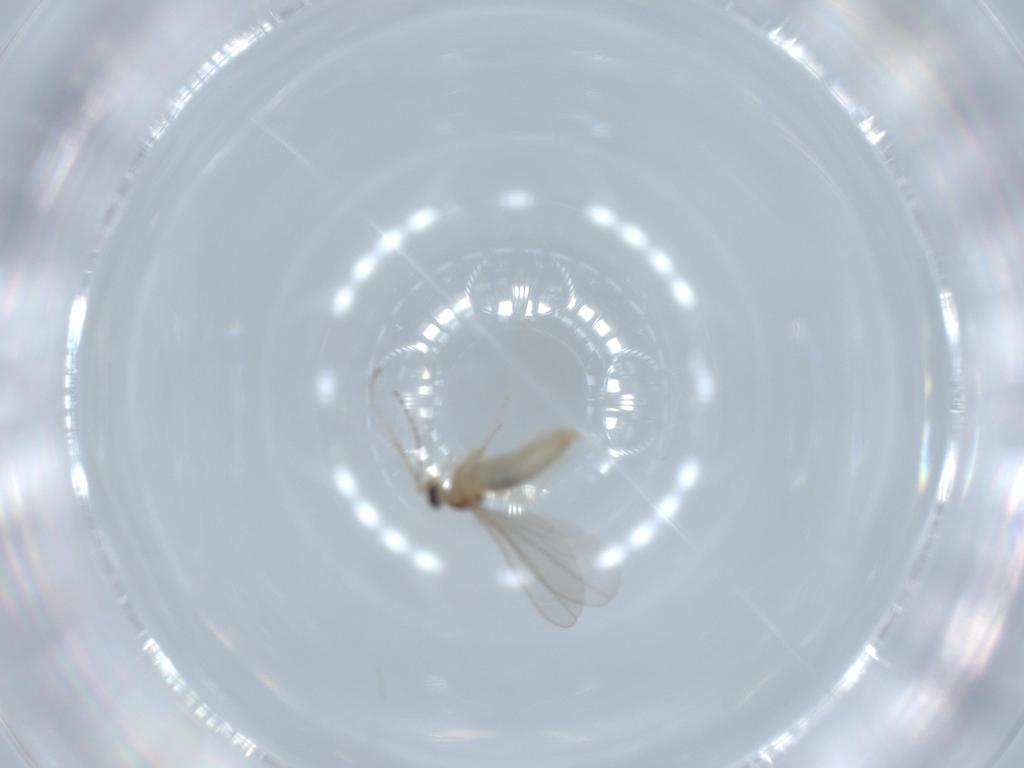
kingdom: Animalia
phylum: Arthropoda
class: Insecta
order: Diptera
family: Cecidomyiidae
